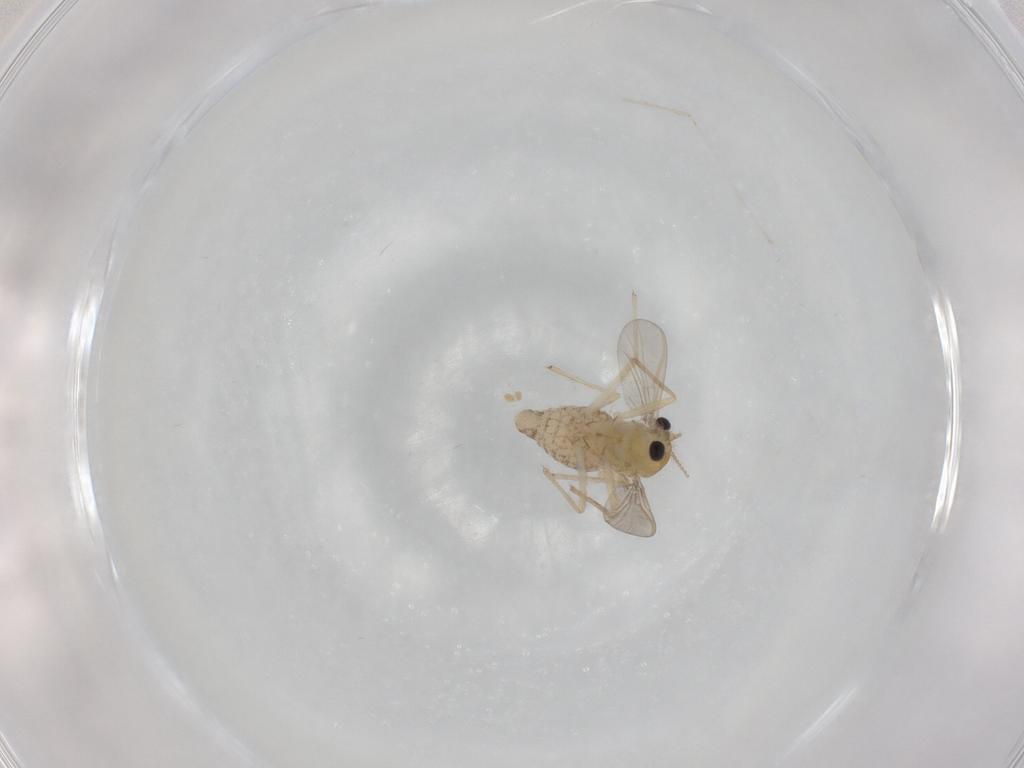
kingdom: Animalia
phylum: Arthropoda
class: Insecta
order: Diptera
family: Chironomidae
